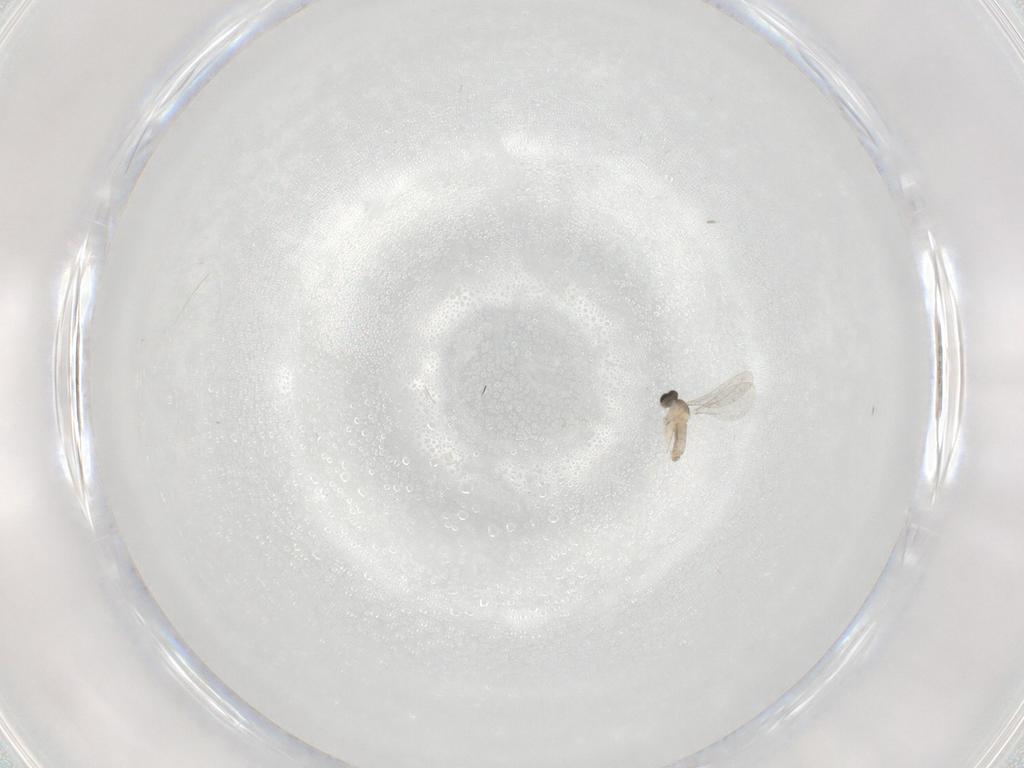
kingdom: Animalia
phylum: Arthropoda
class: Insecta
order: Diptera
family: Cecidomyiidae
